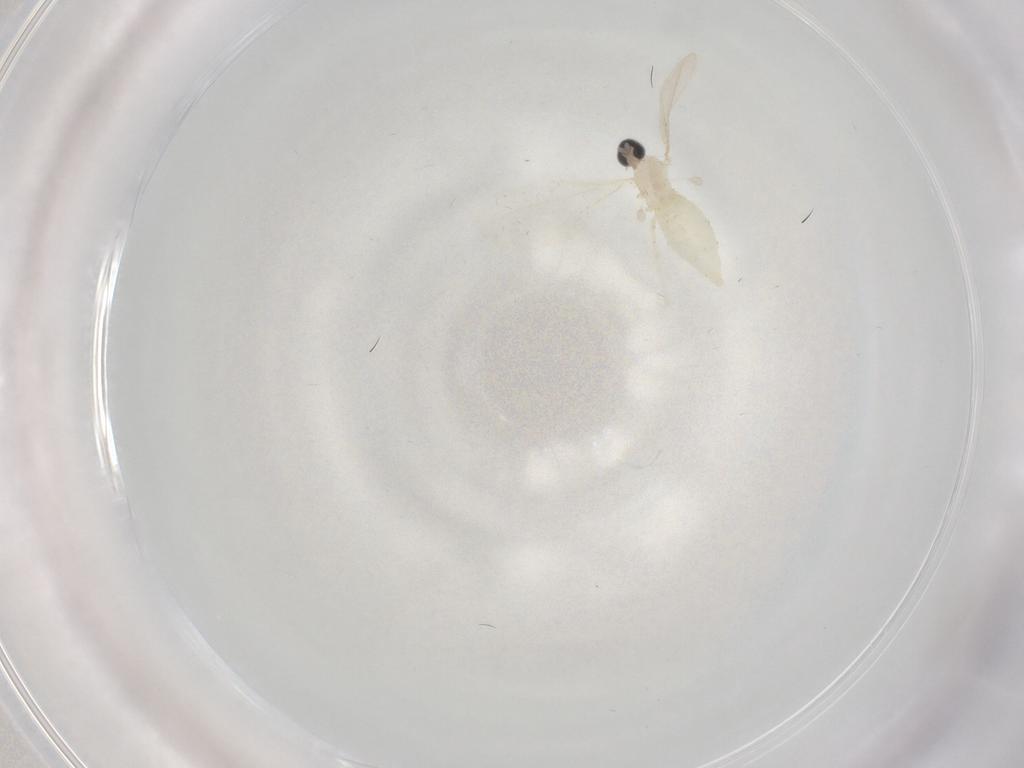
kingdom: Animalia
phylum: Arthropoda
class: Insecta
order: Diptera
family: Cecidomyiidae
